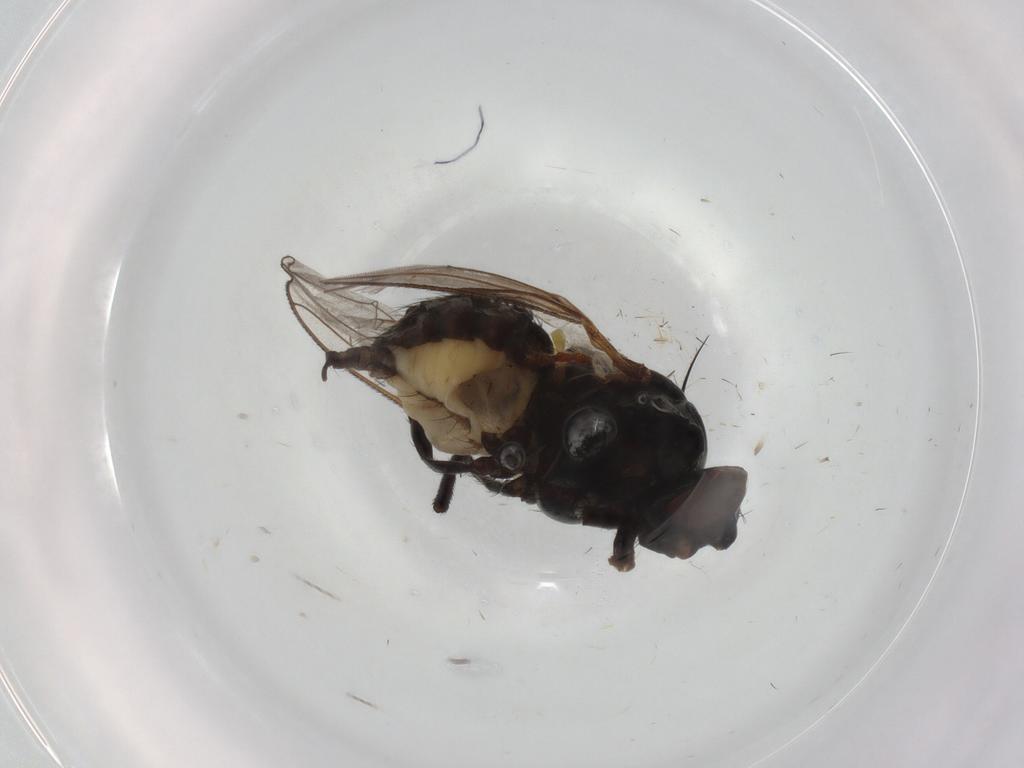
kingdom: Animalia
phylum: Arthropoda
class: Insecta
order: Diptera
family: Anthomyiidae
